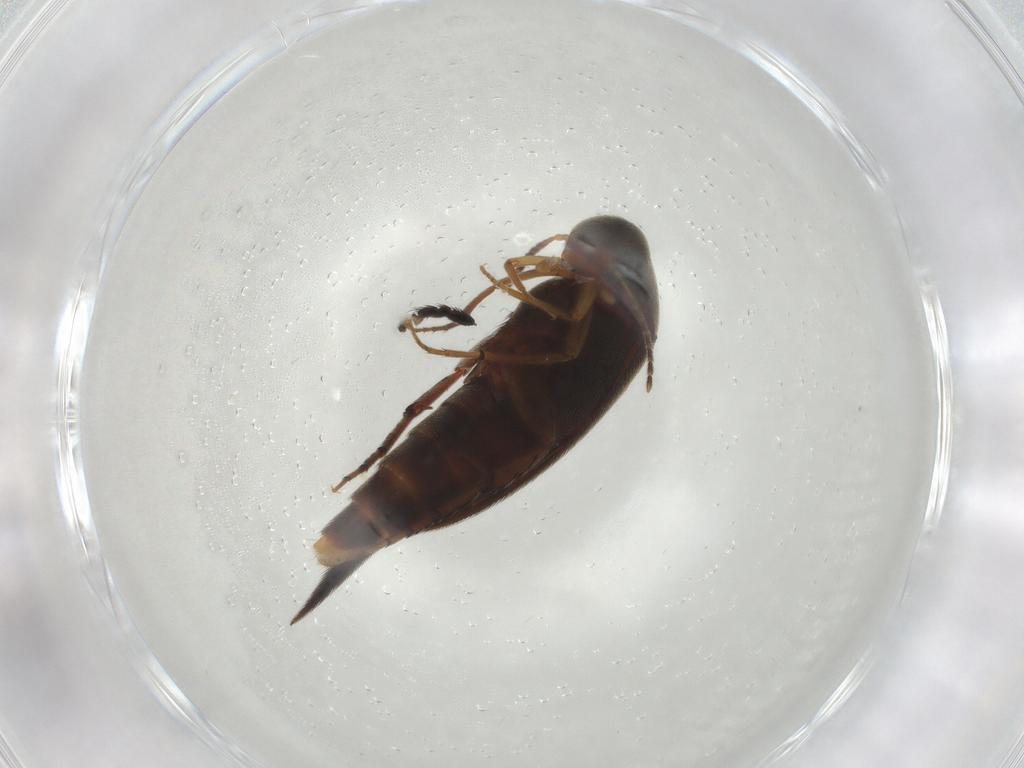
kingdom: Animalia
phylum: Arthropoda
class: Insecta
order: Coleoptera
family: Mordellidae
